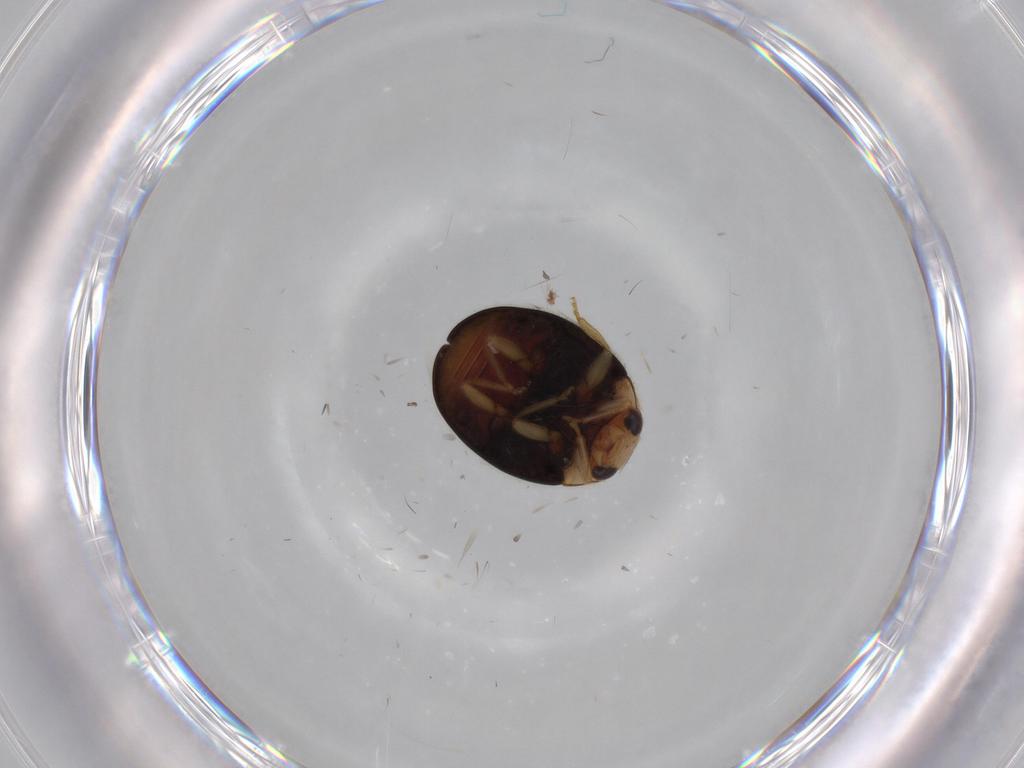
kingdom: Animalia
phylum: Arthropoda
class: Insecta
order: Coleoptera
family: Coccinellidae
